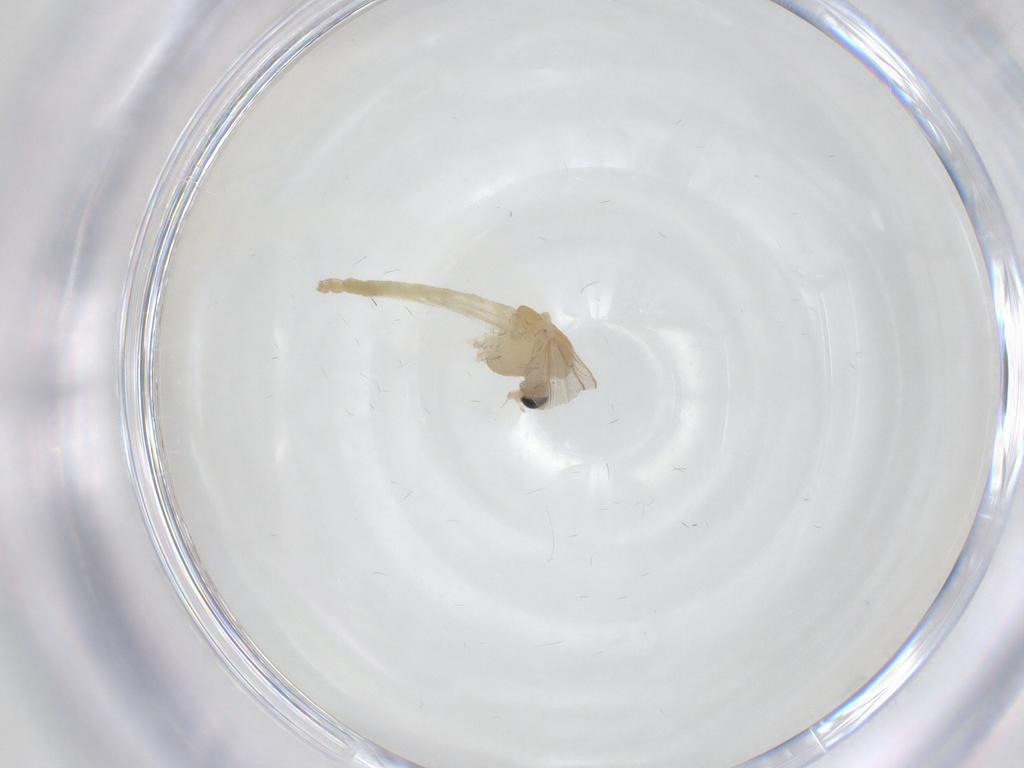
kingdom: Animalia
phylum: Arthropoda
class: Insecta
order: Diptera
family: Chironomidae
